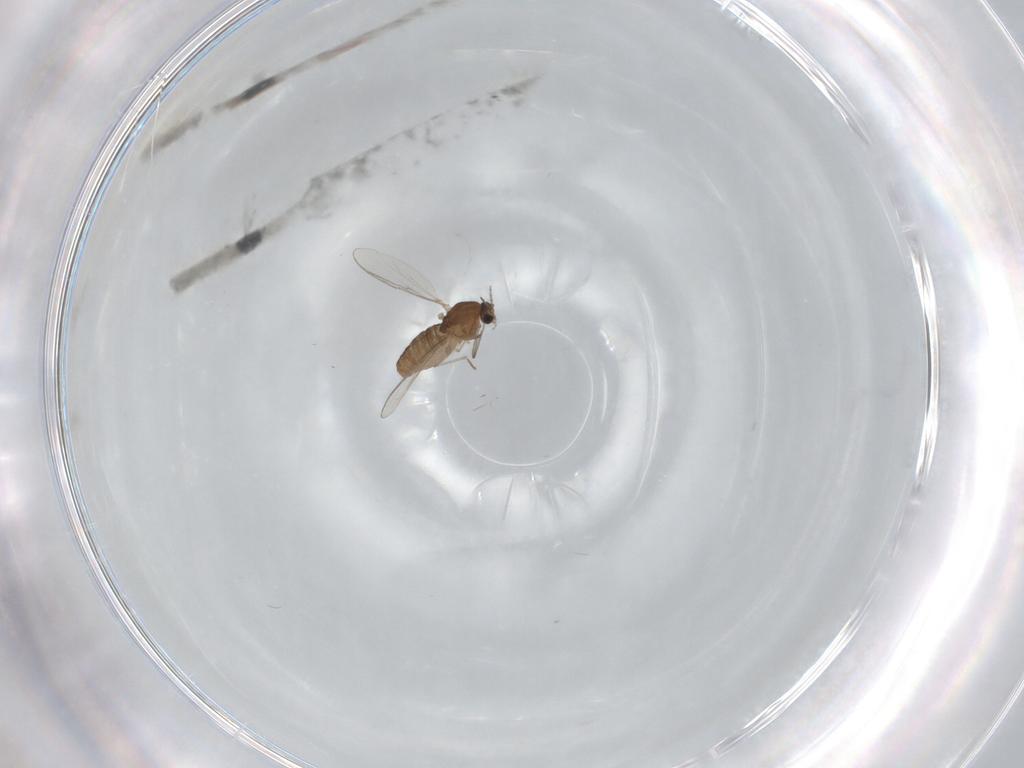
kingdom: Animalia
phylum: Arthropoda
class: Insecta
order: Diptera
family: Chironomidae
